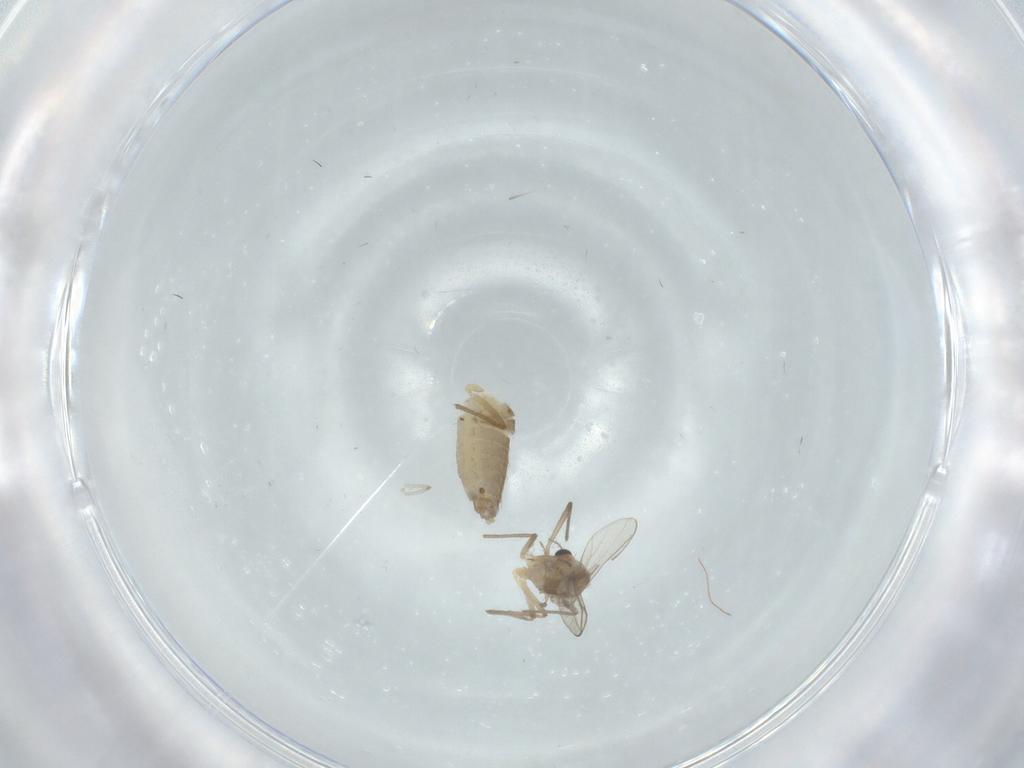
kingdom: Animalia
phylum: Arthropoda
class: Insecta
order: Diptera
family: Chironomidae
